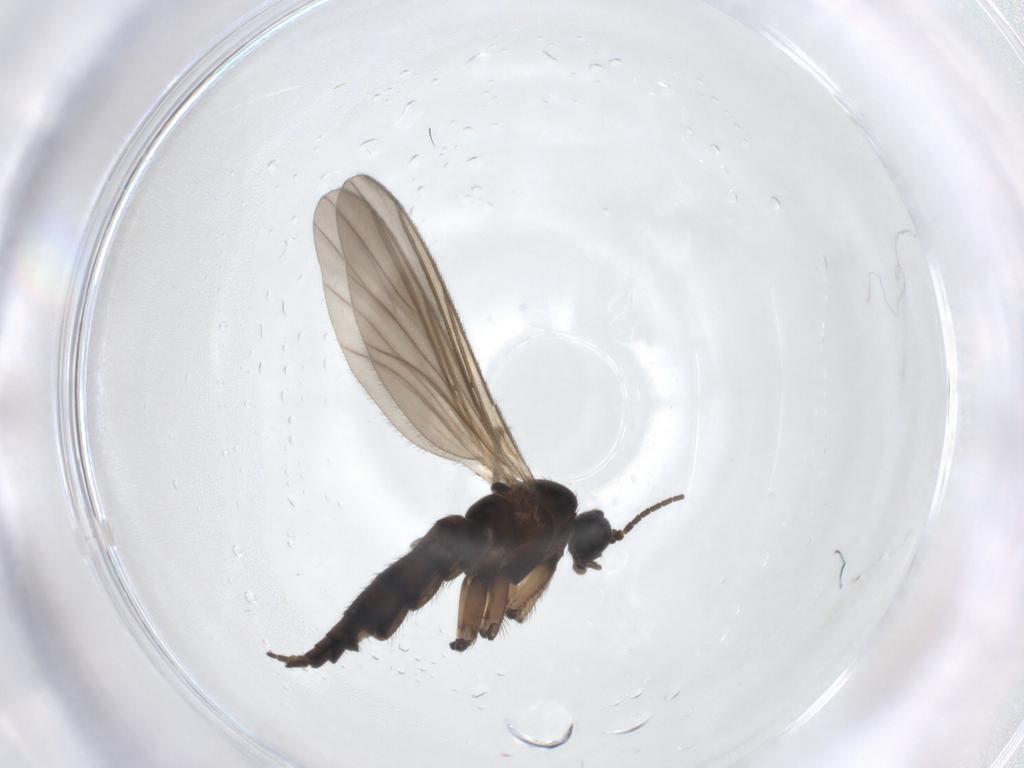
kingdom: Animalia
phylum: Arthropoda
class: Insecta
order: Diptera
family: Sciaridae
